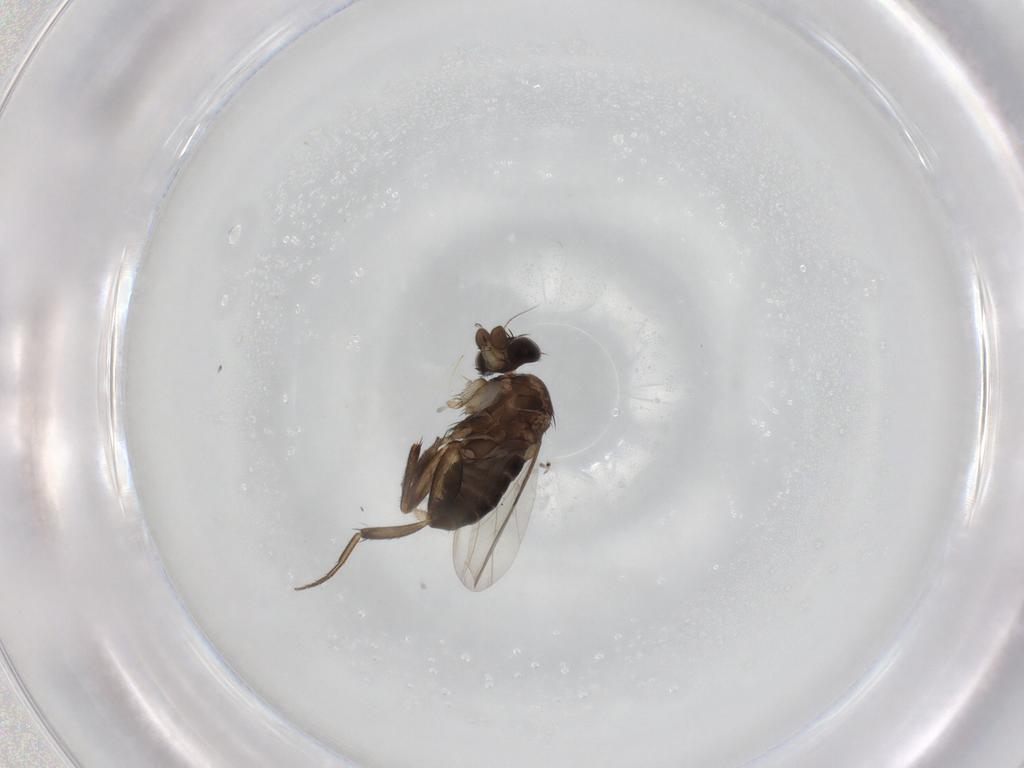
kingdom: Animalia
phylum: Arthropoda
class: Insecta
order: Diptera
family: Phoridae
